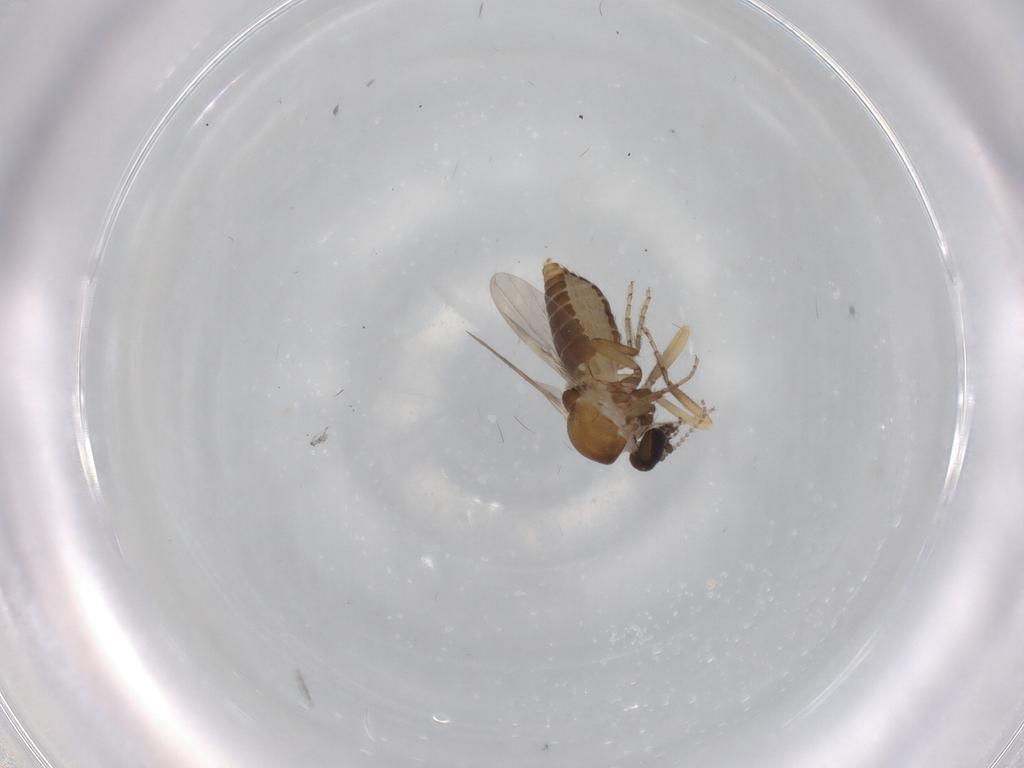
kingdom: Animalia
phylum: Arthropoda
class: Insecta
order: Diptera
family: Ceratopogonidae
